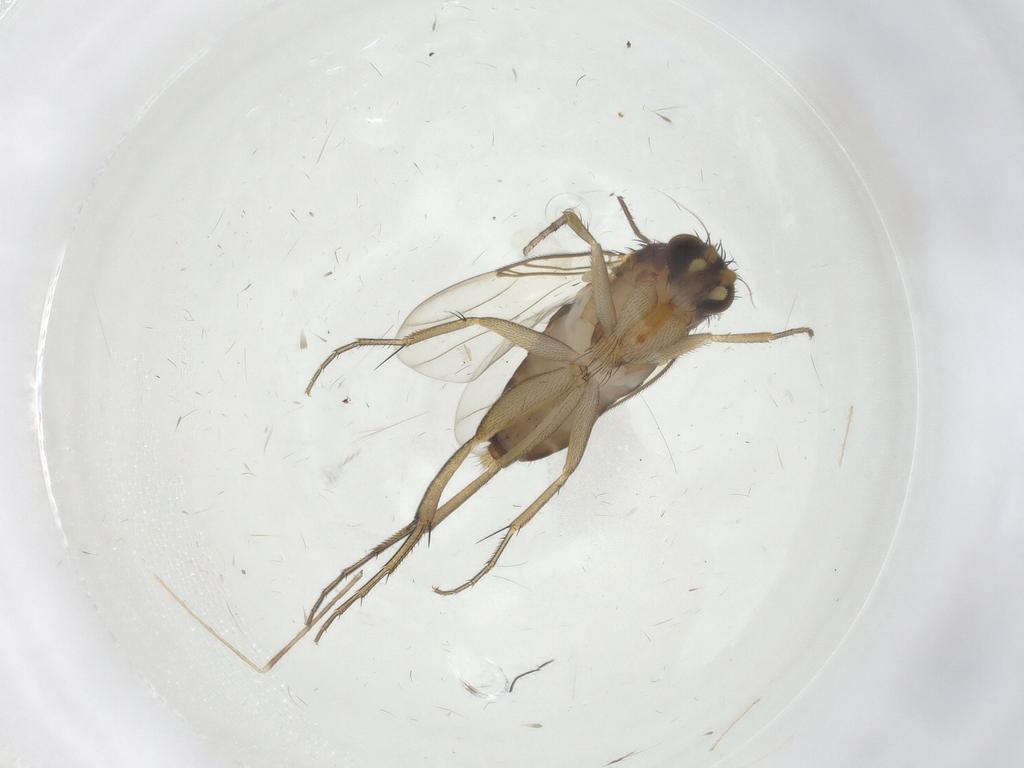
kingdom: Animalia
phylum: Arthropoda
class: Insecta
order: Diptera
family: Phoridae
